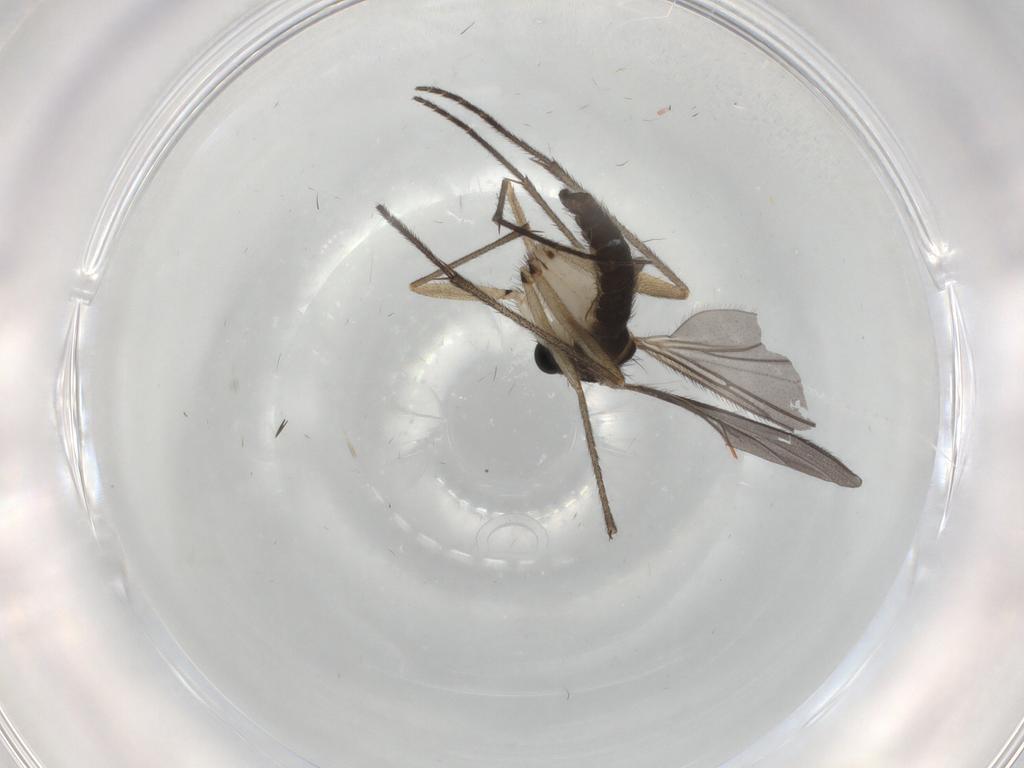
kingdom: Animalia
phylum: Arthropoda
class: Insecta
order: Diptera
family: Sciaridae
